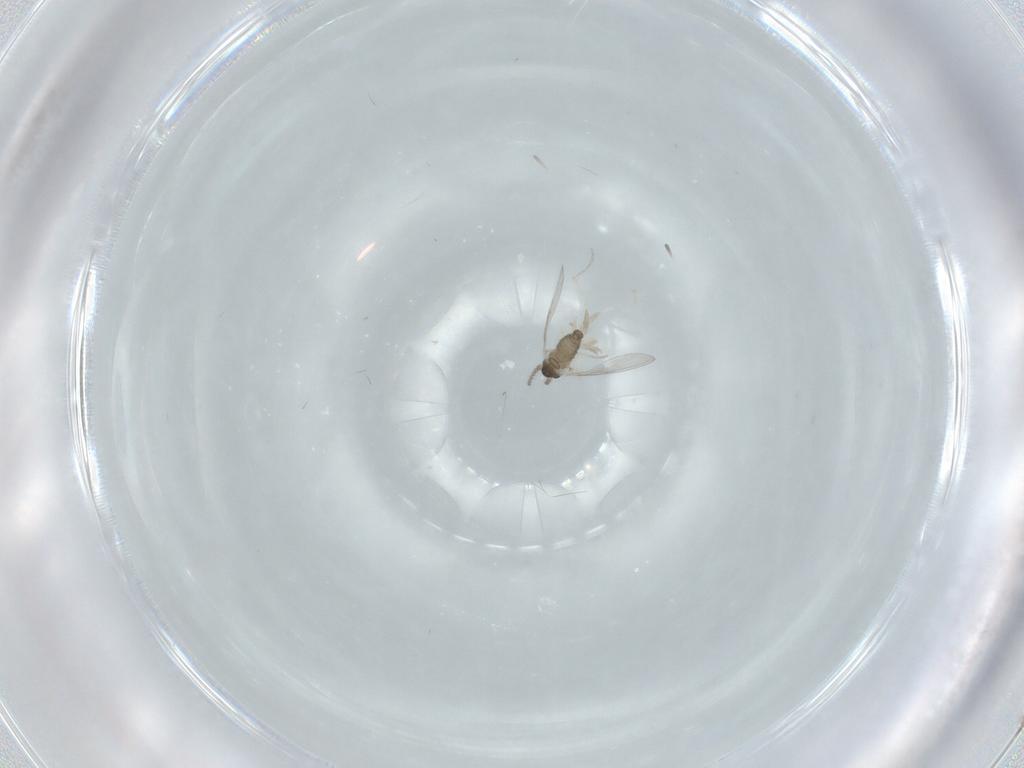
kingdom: Animalia
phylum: Arthropoda
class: Insecta
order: Diptera
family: Cecidomyiidae
